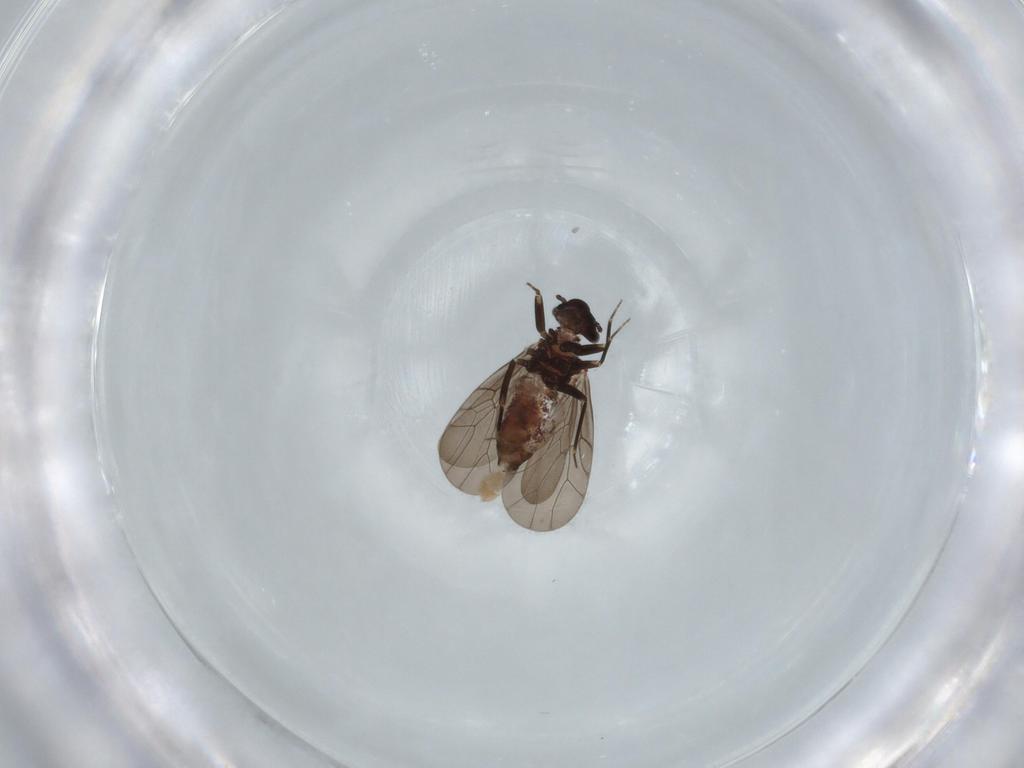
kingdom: Animalia
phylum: Arthropoda
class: Insecta
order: Psocodea
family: Lepidopsocidae
